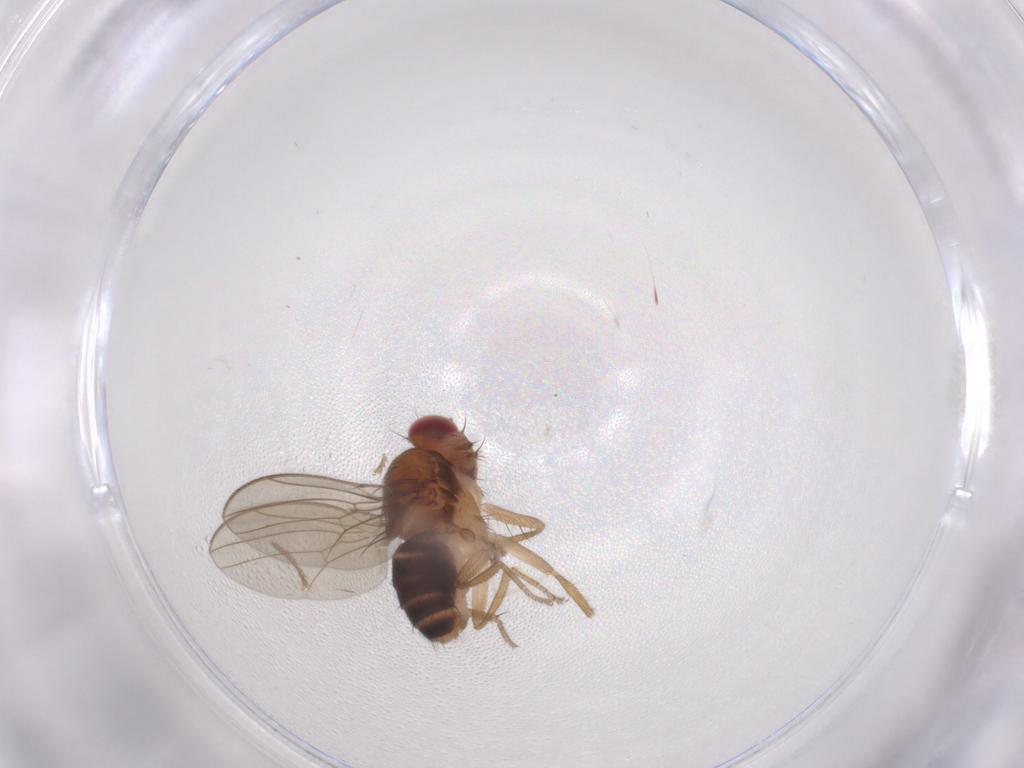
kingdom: Animalia
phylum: Arthropoda
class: Insecta
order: Diptera
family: Drosophilidae
